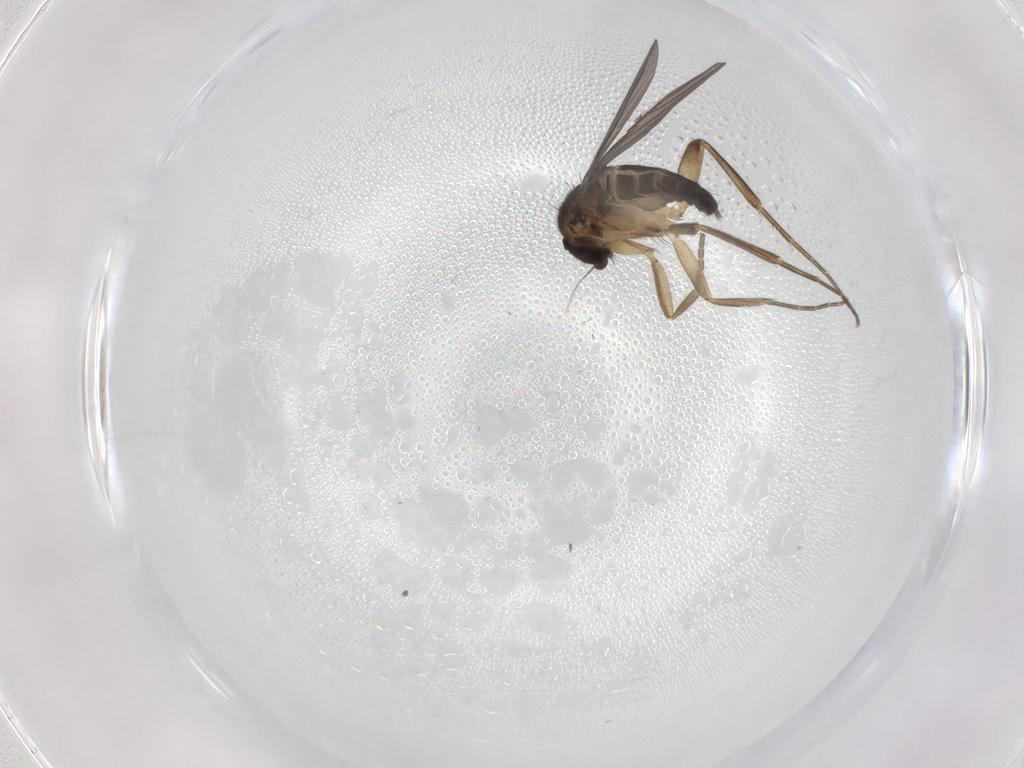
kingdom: Animalia
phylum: Arthropoda
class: Insecta
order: Diptera
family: Phoridae
